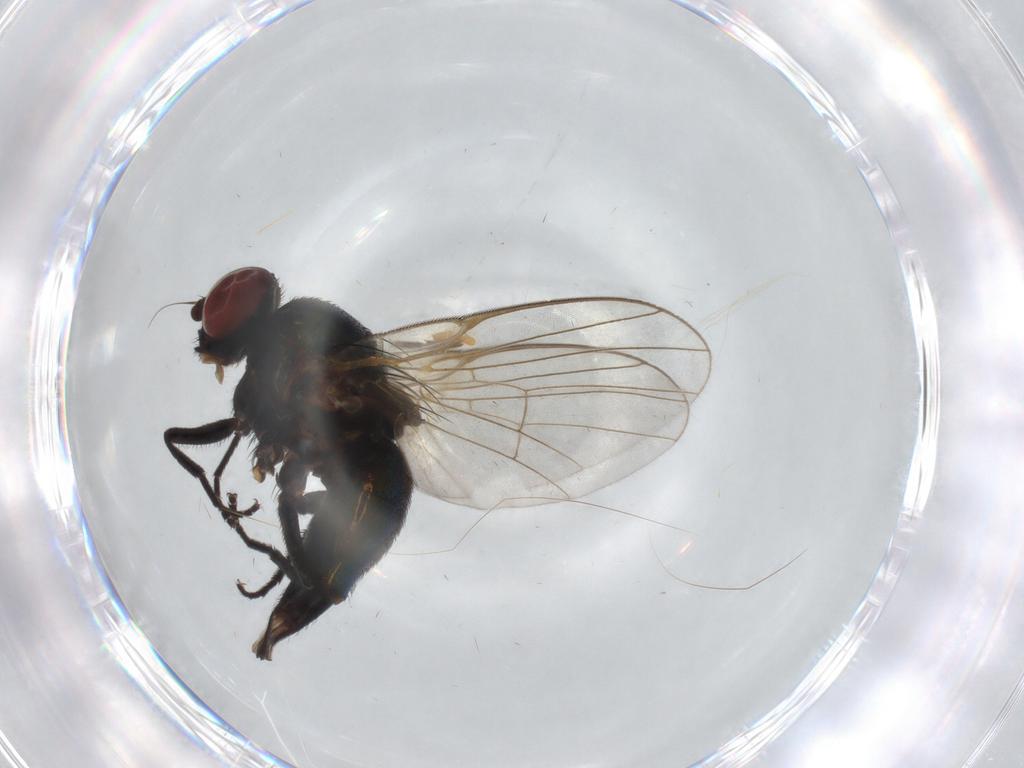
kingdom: Animalia
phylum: Arthropoda
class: Insecta
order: Diptera
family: Agromyzidae
